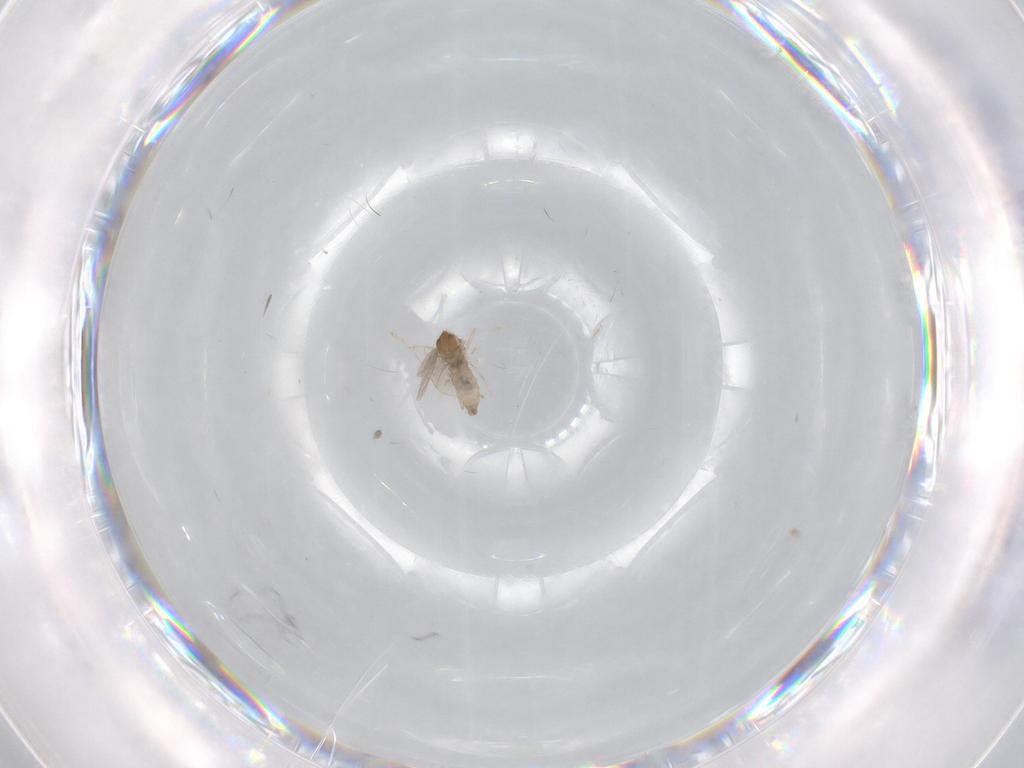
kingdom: Animalia
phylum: Arthropoda
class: Insecta
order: Diptera
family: Cecidomyiidae
